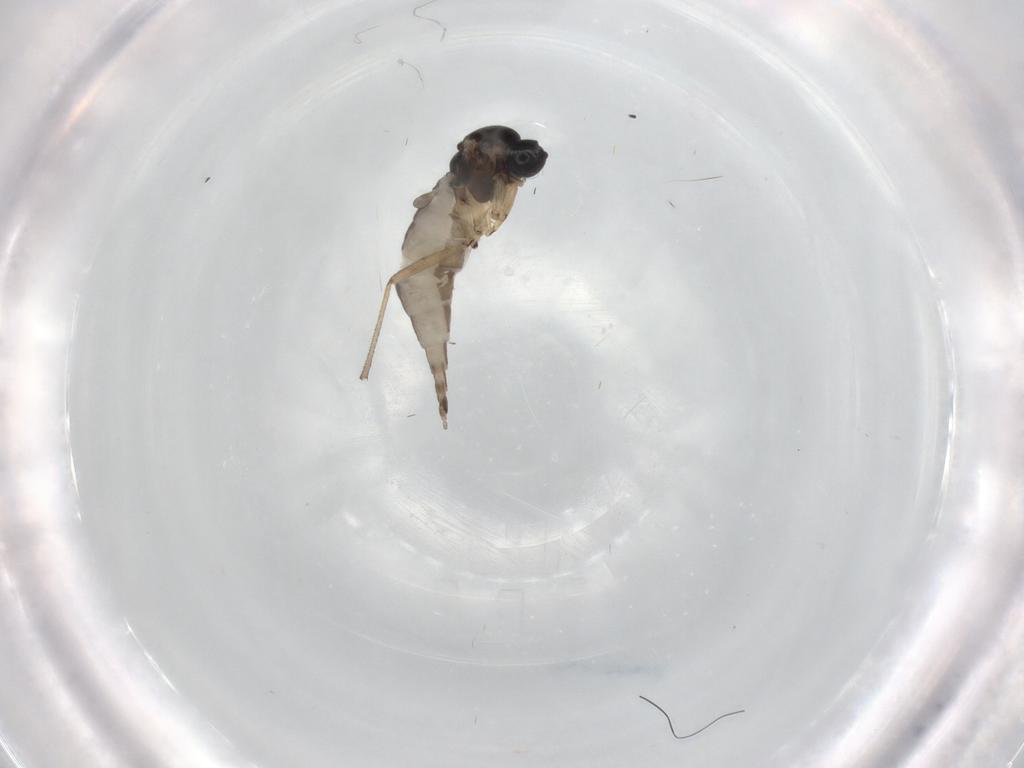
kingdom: Animalia
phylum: Arthropoda
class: Insecta
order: Diptera
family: Sciaridae
